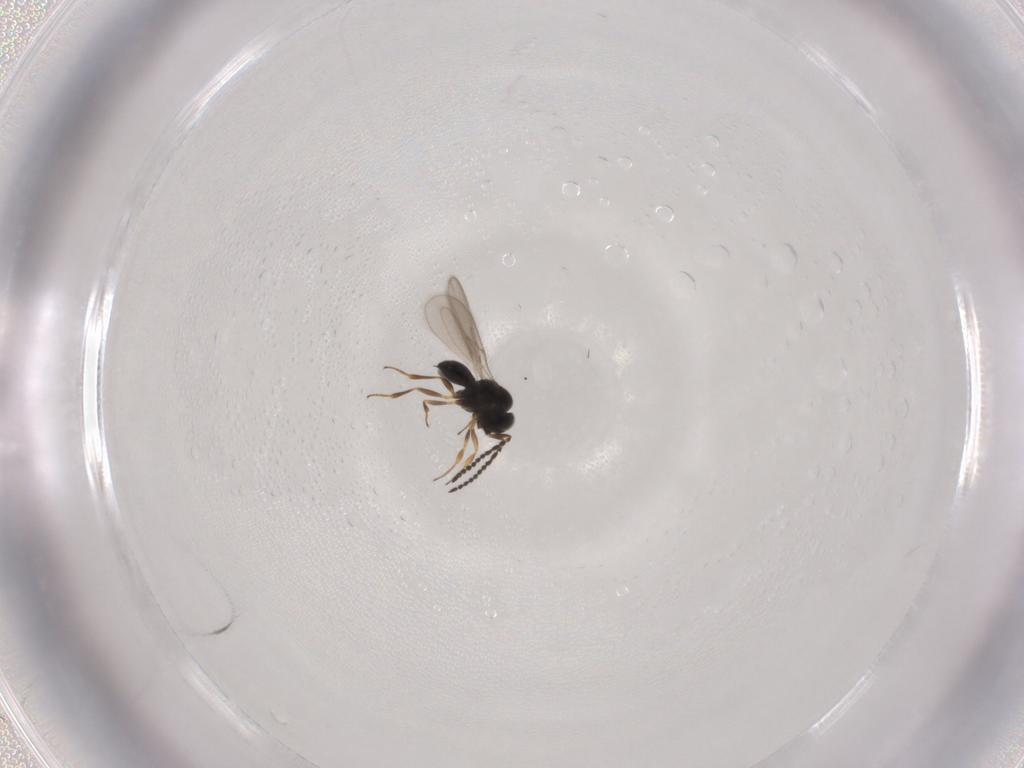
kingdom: Animalia
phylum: Arthropoda
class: Insecta
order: Hymenoptera
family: Scelionidae
